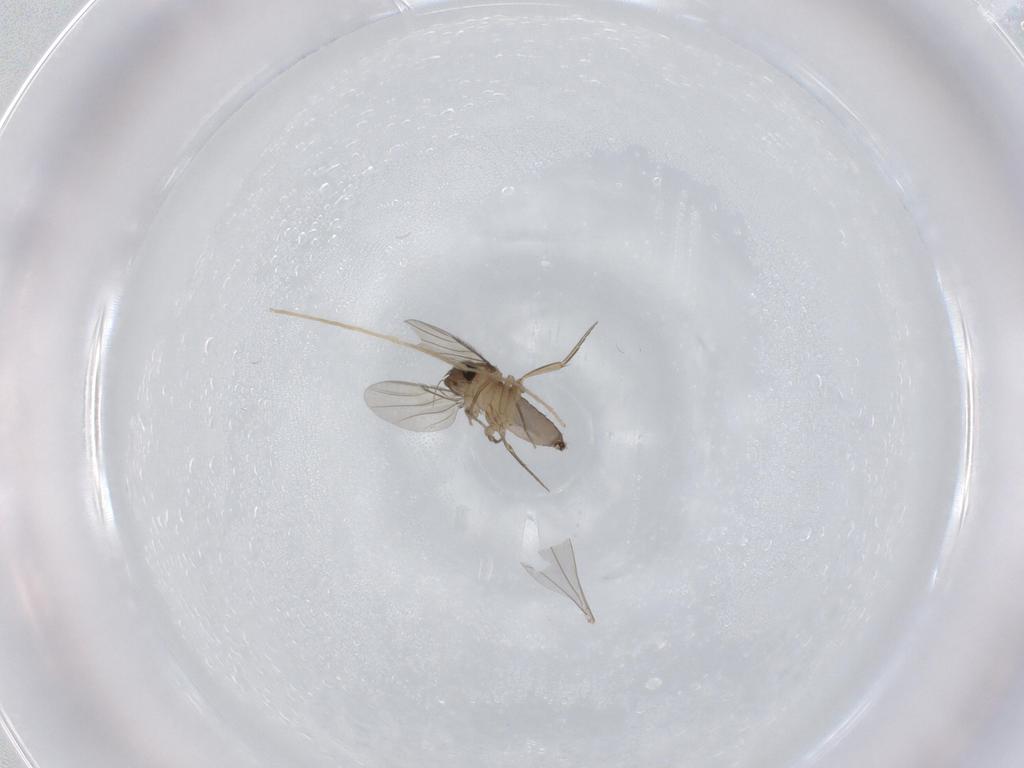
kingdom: Animalia
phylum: Arthropoda
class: Insecta
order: Diptera
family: Phoridae
